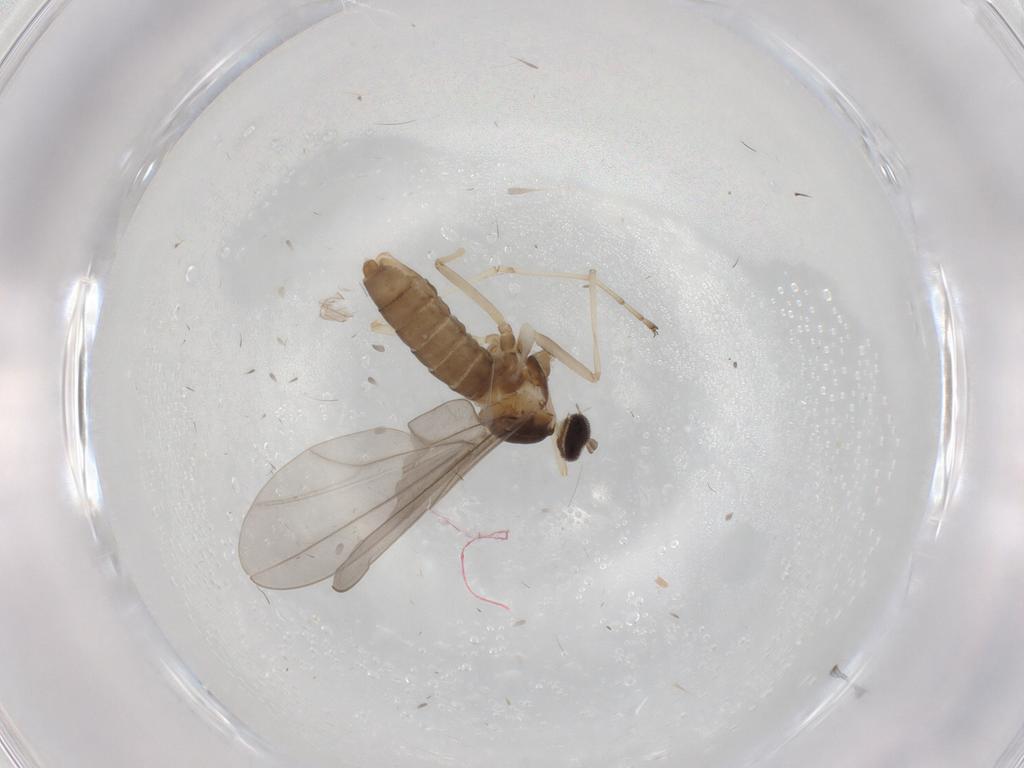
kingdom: Animalia
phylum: Arthropoda
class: Insecta
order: Diptera
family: Cecidomyiidae
